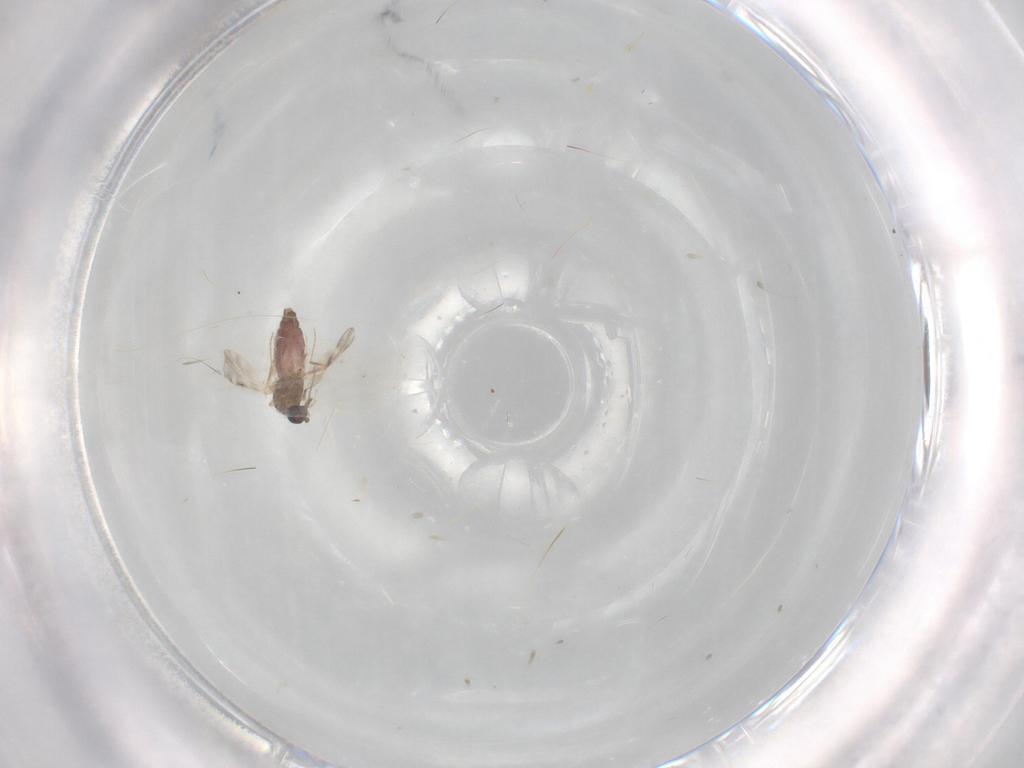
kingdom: Animalia
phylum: Arthropoda
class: Insecta
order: Diptera
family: Ceratopogonidae
